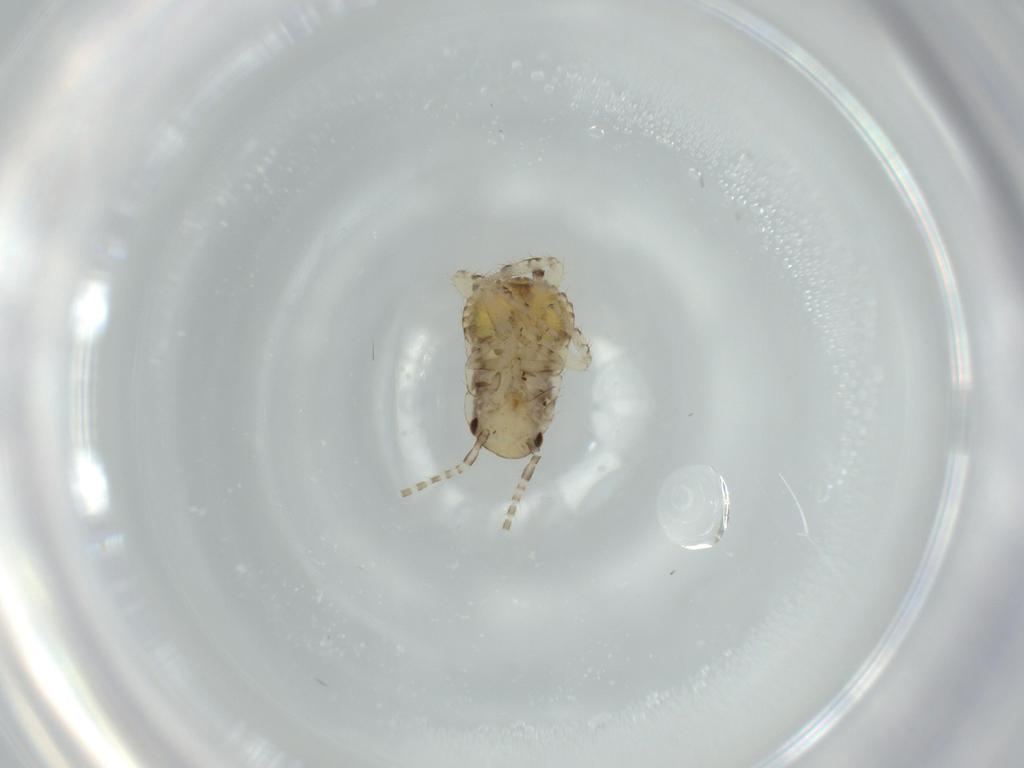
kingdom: Animalia
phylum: Arthropoda
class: Insecta
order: Blattodea
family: Ectobiidae
